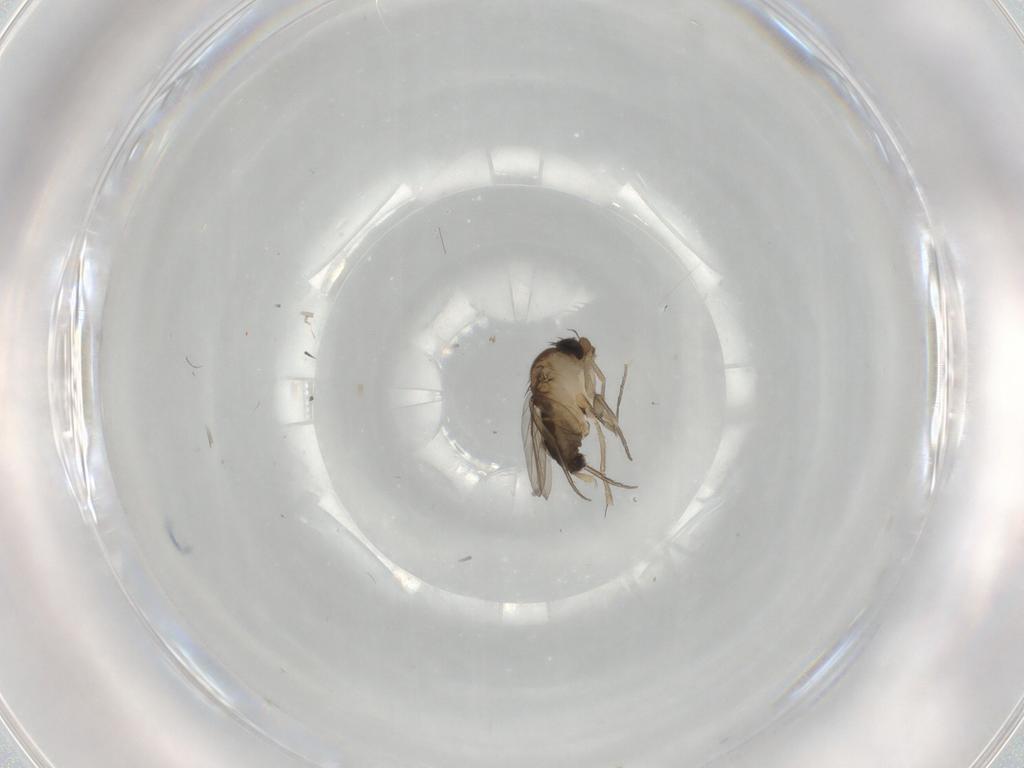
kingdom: Animalia
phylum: Arthropoda
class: Insecta
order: Diptera
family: Phoridae
